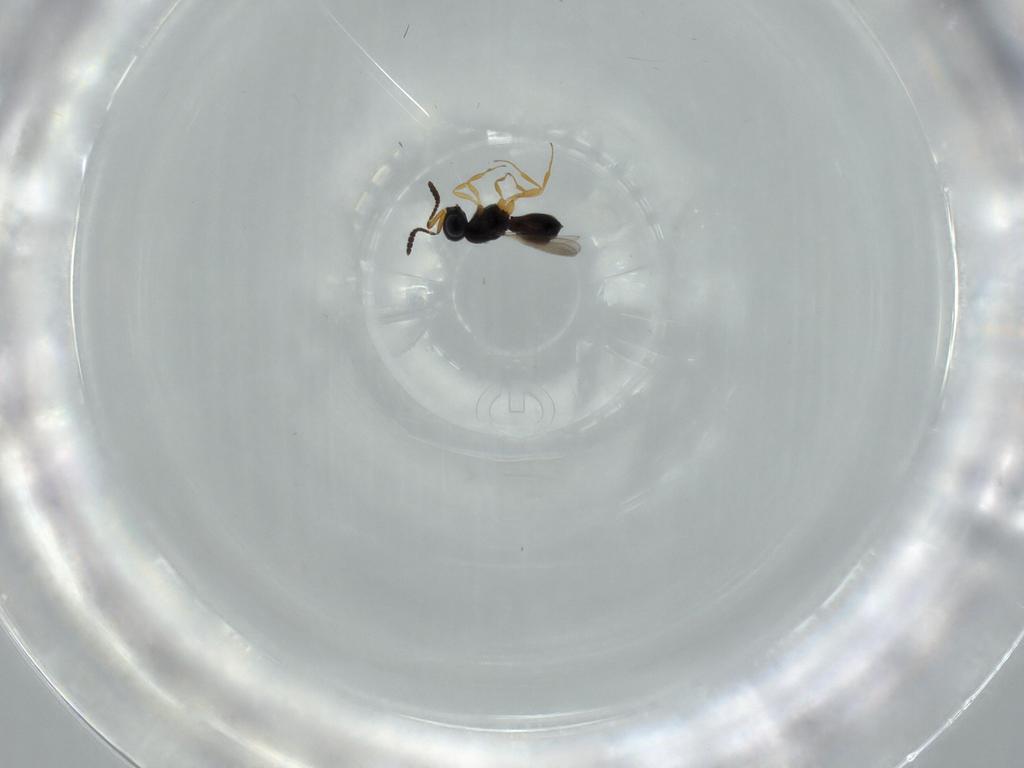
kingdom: Animalia
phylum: Arthropoda
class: Insecta
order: Hymenoptera
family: Scelionidae
